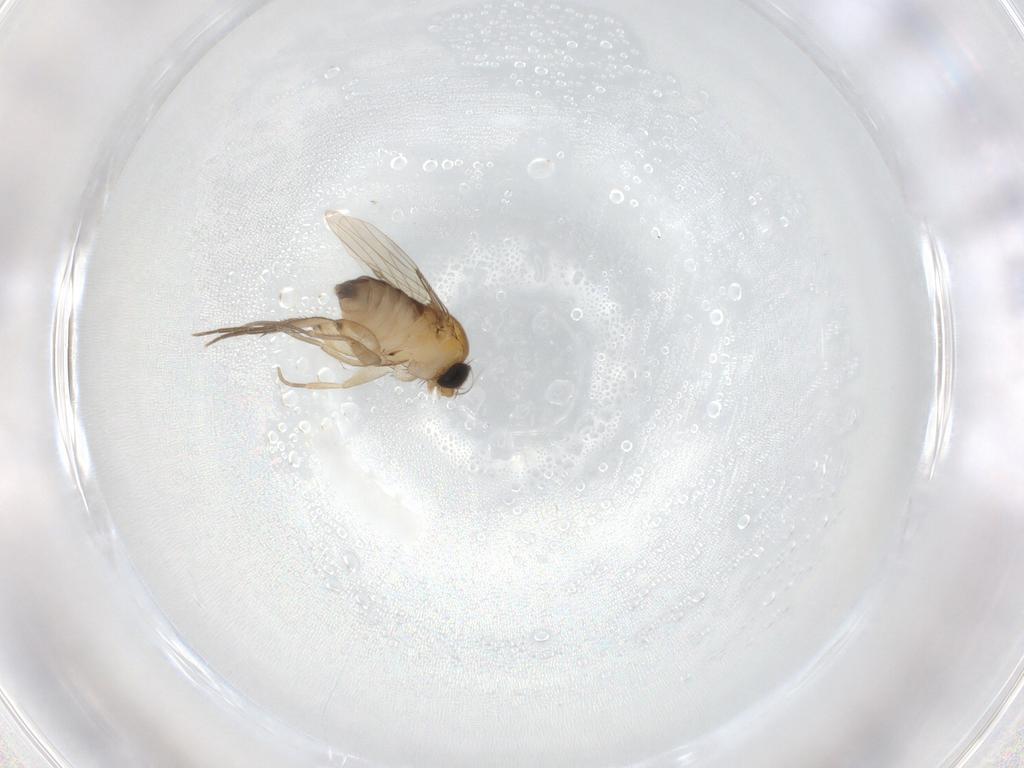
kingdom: Animalia
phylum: Arthropoda
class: Insecta
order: Diptera
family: Phoridae
